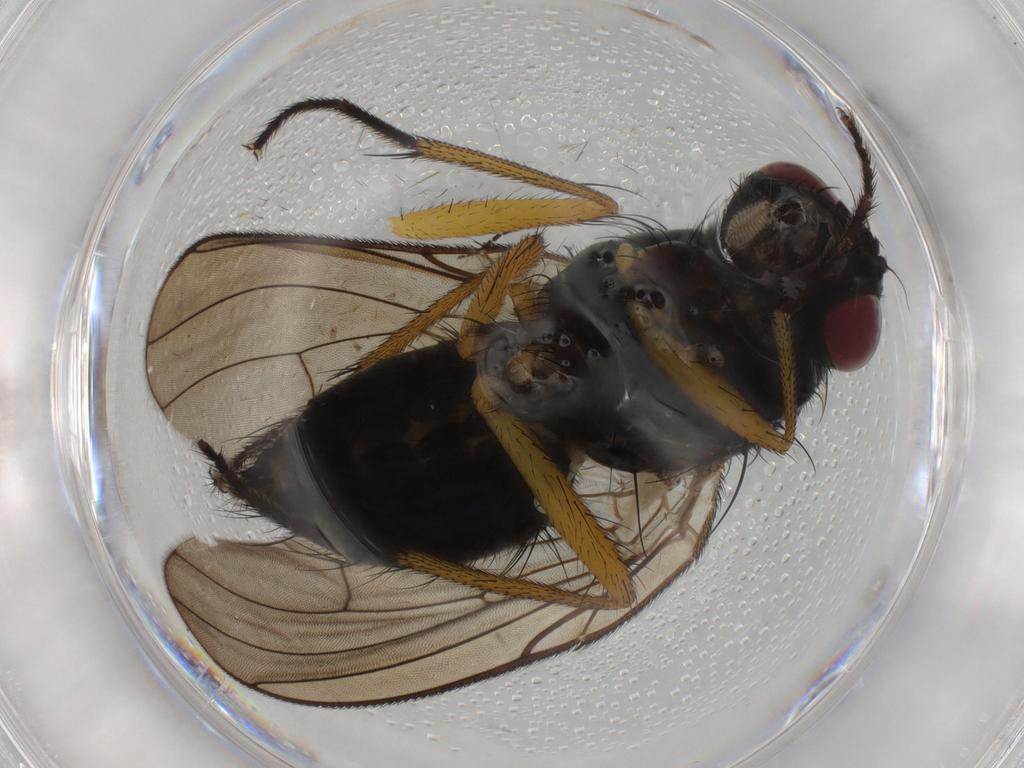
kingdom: Animalia
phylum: Arthropoda
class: Insecta
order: Diptera
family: Muscidae
